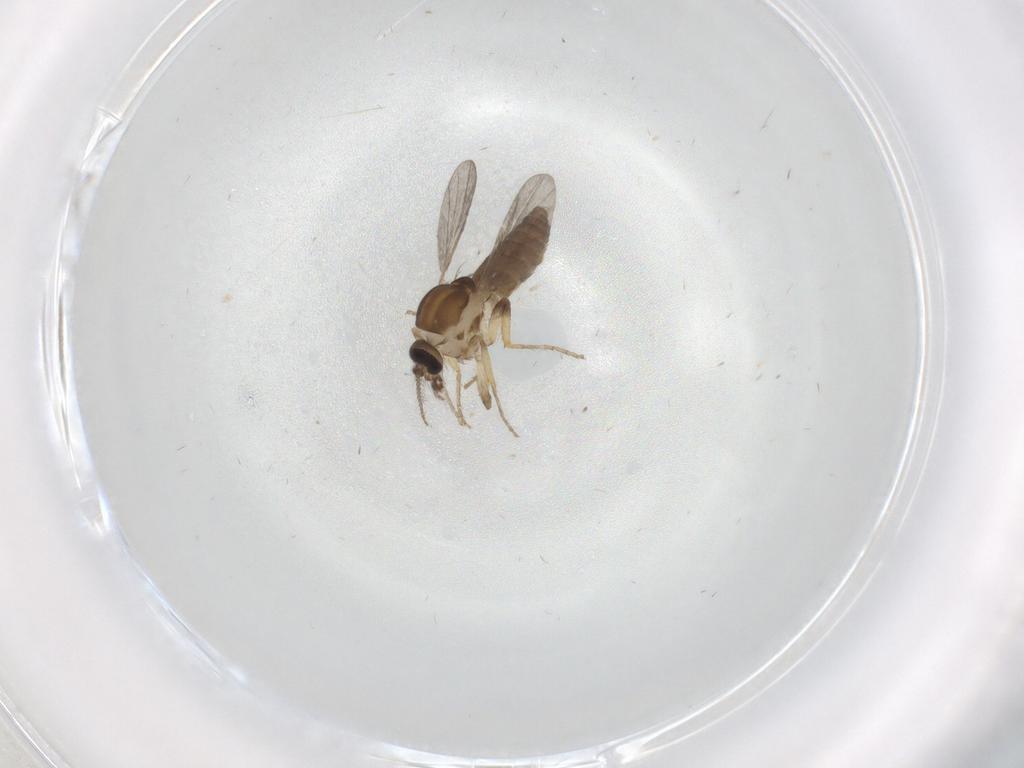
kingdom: Animalia
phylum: Arthropoda
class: Insecta
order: Diptera
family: Ceratopogonidae
